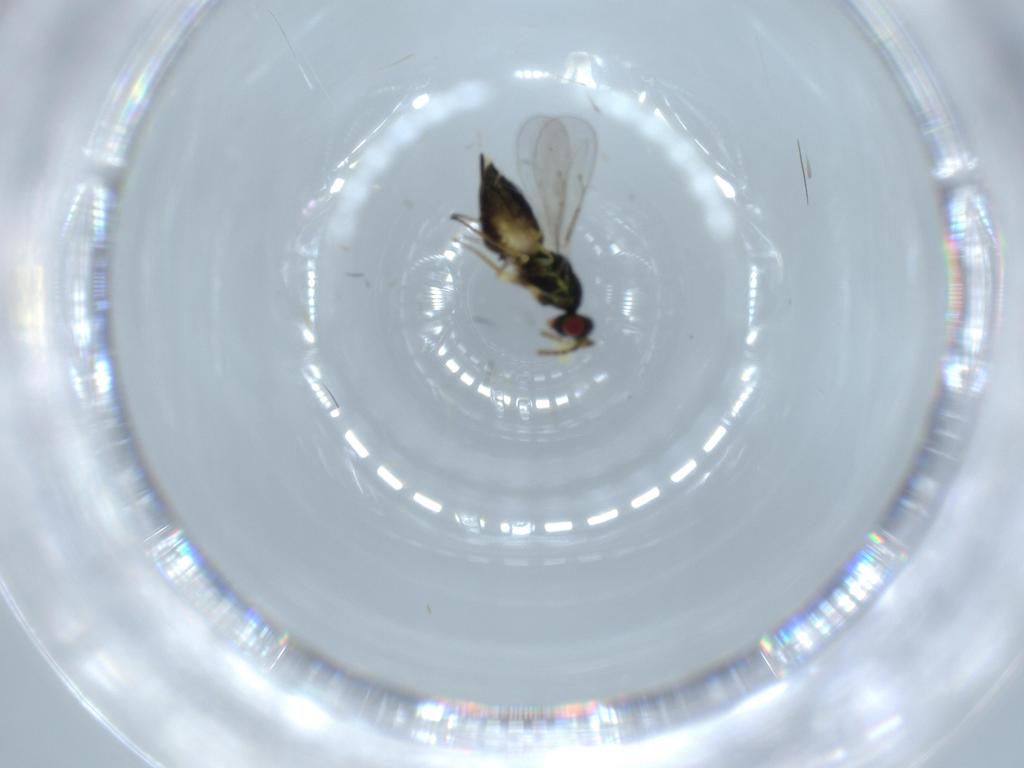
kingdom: Animalia
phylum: Arthropoda
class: Insecta
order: Hymenoptera
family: Eulophidae
